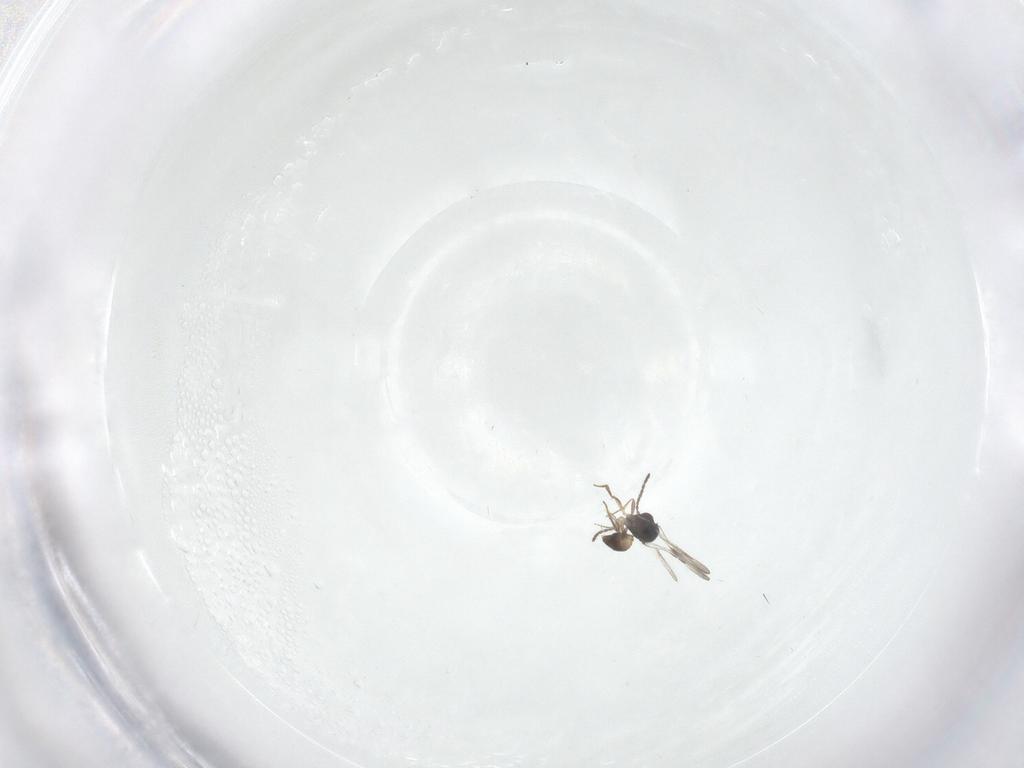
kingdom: Animalia
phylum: Arthropoda
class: Insecta
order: Hymenoptera
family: Ceraphronidae
